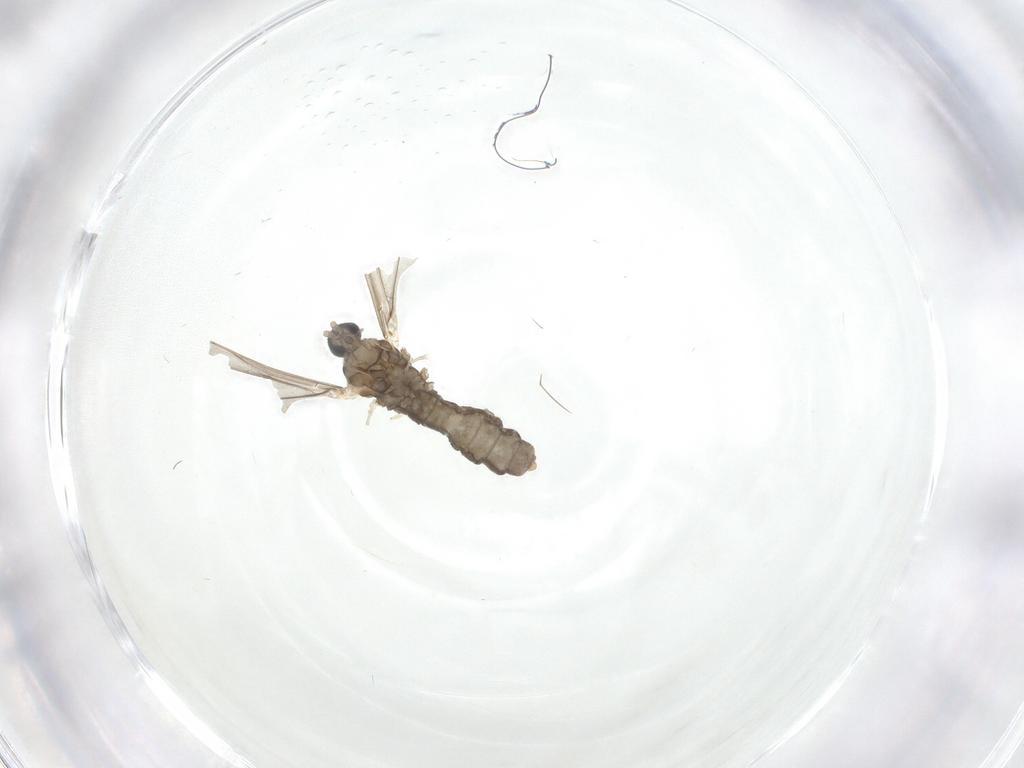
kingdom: Animalia
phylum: Arthropoda
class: Insecta
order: Diptera
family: Cecidomyiidae
